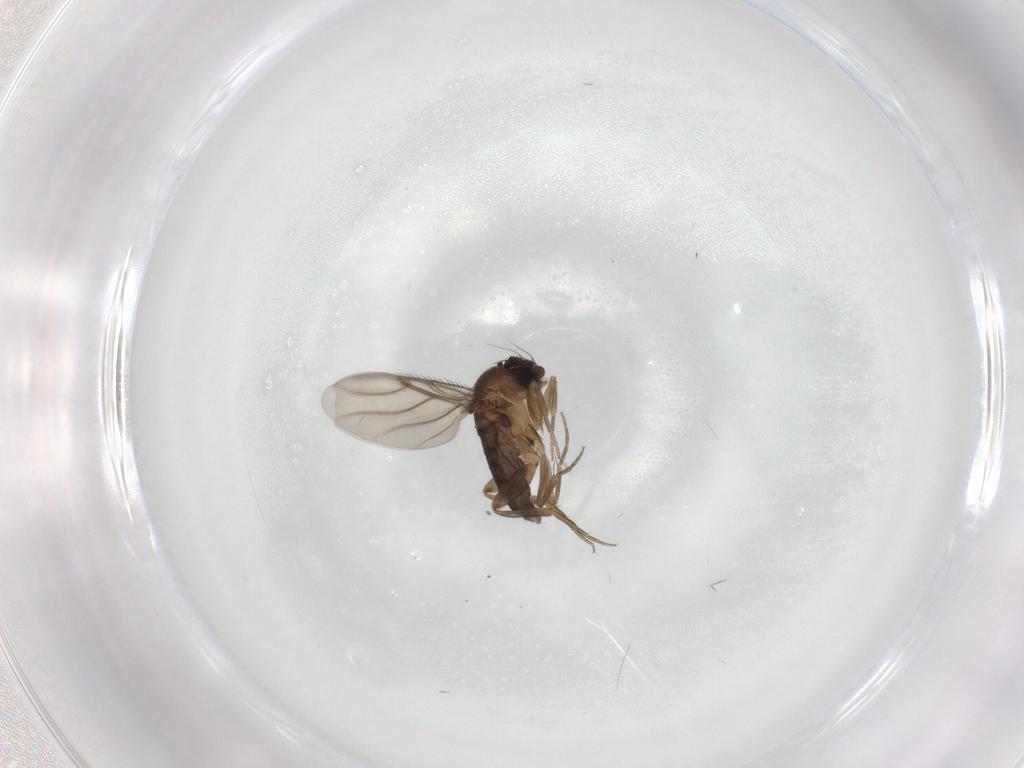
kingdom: Animalia
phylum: Arthropoda
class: Insecta
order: Diptera
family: Phoridae
